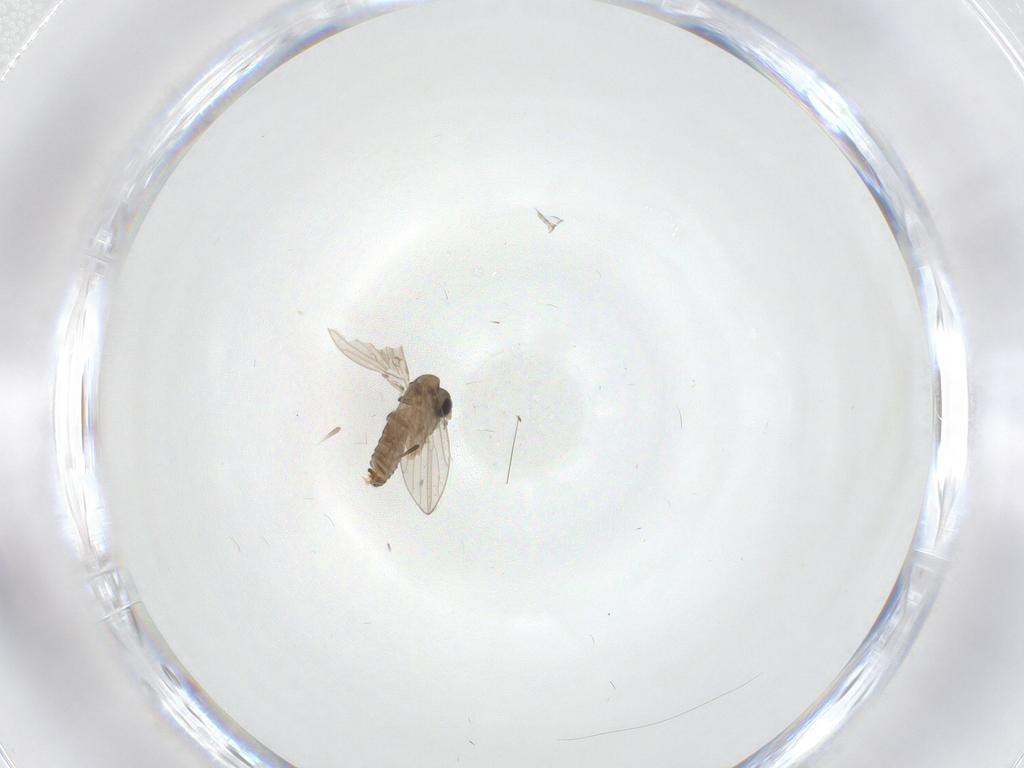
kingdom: Animalia
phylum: Arthropoda
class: Insecta
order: Diptera
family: Psychodidae
